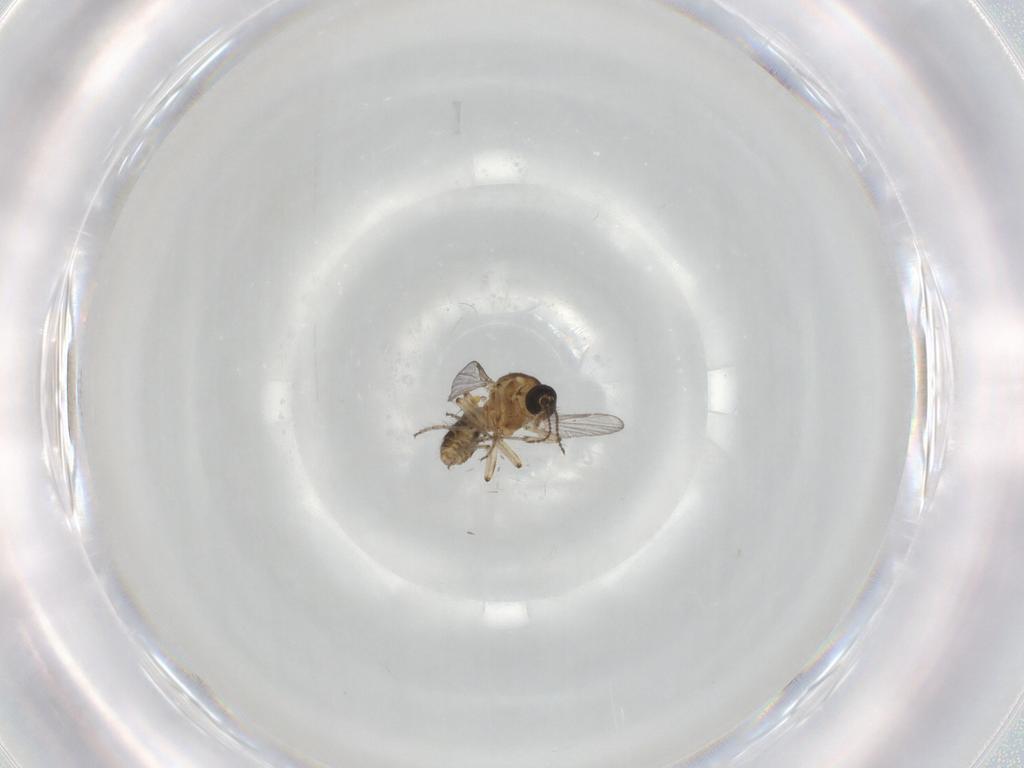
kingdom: Animalia
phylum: Arthropoda
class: Insecta
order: Diptera
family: Ceratopogonidae
